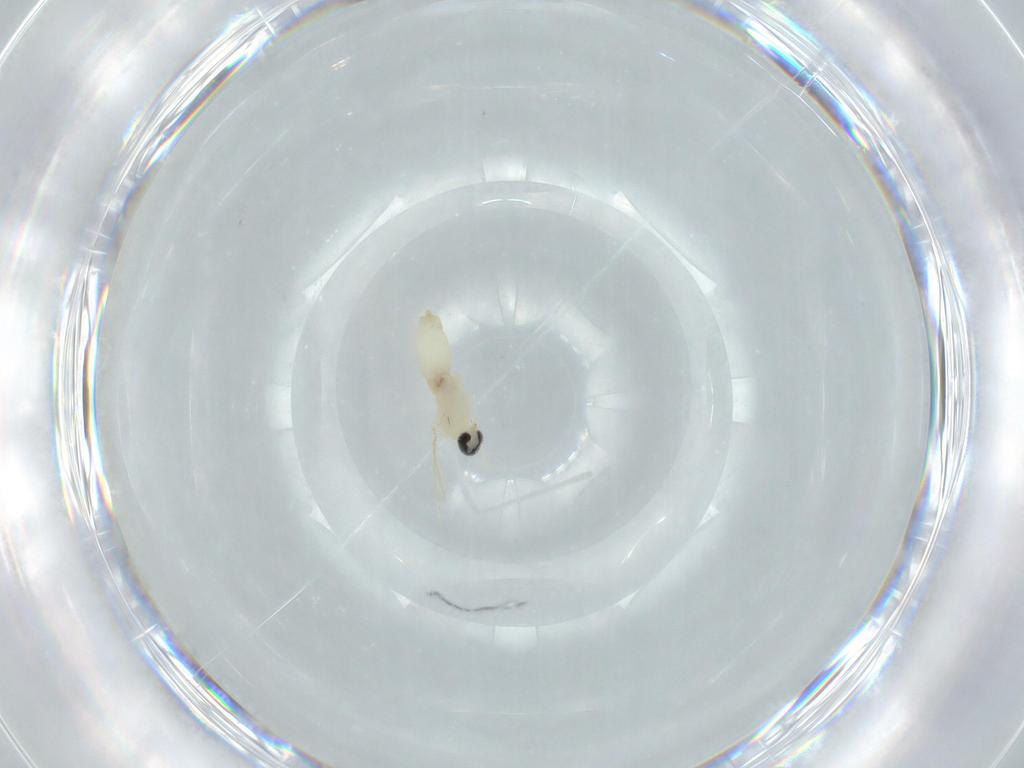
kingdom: Animalia
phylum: Arthropoda
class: Insecta
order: Diptera
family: Cecidomyiidae
